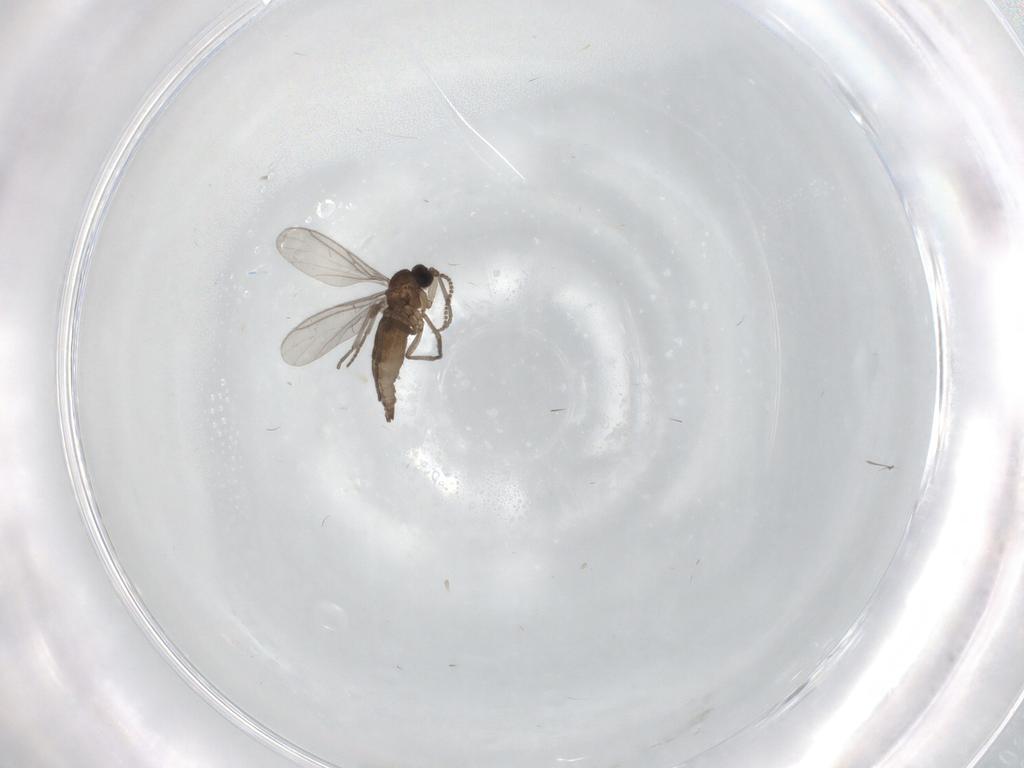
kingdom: Animalia
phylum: Arthropoda
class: Insecta
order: Diptera
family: Sciaridae
